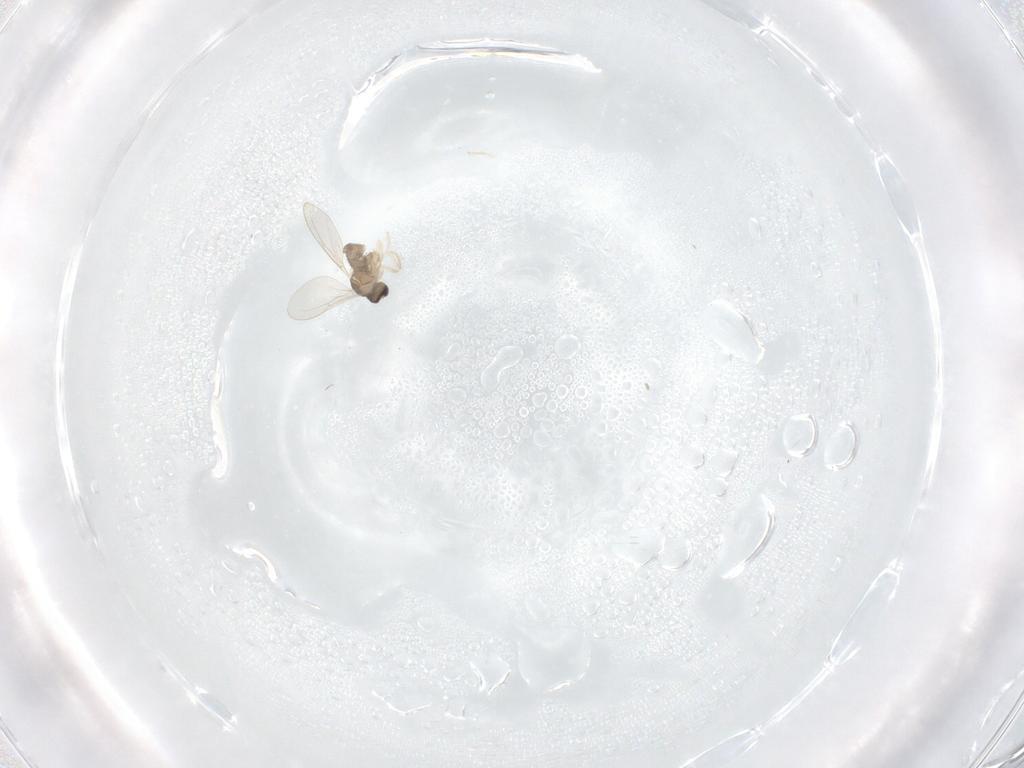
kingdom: Animalia
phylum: Arthropoda
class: Insecta
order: Diptera
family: Cecidomyiidae
